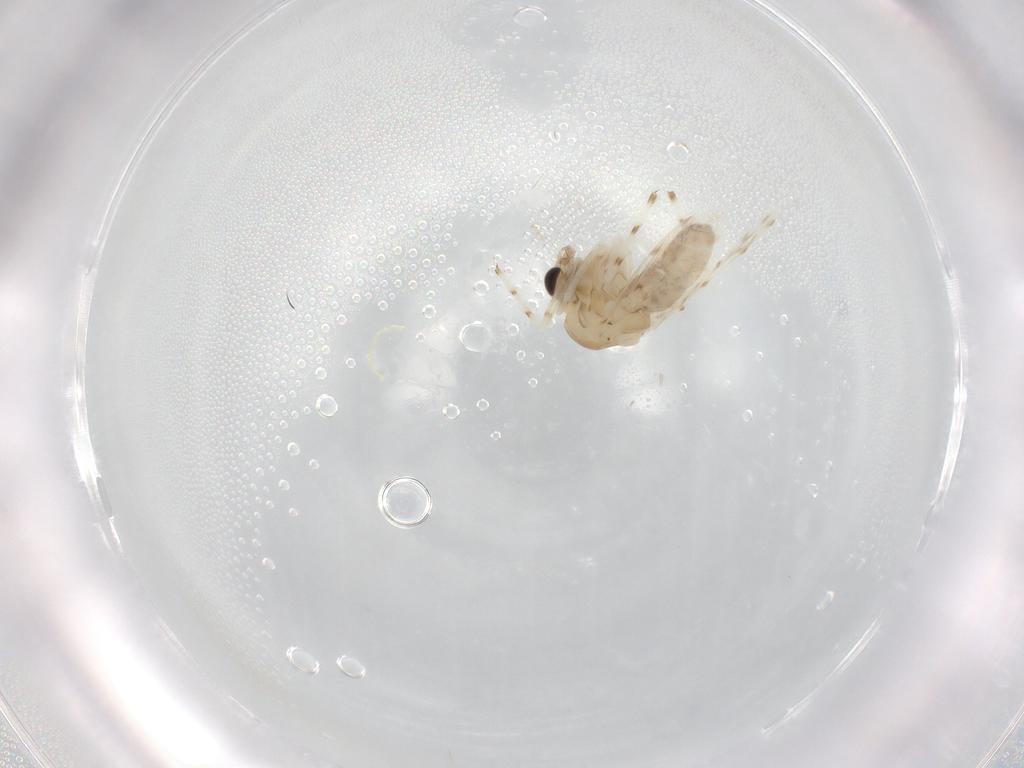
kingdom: Animalia
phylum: Arthropoda
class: Insecta
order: Diptera
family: Chironomidae
